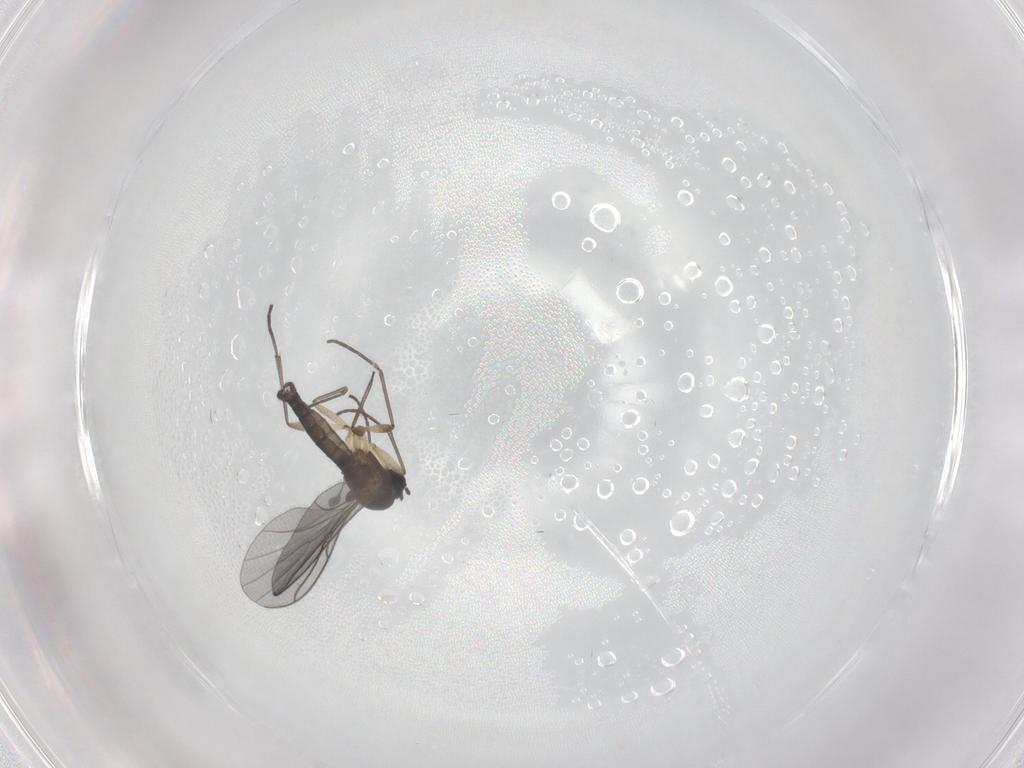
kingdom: Animalia
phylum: Arthropoda
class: Insecta
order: Diptera
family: Sciaridae
